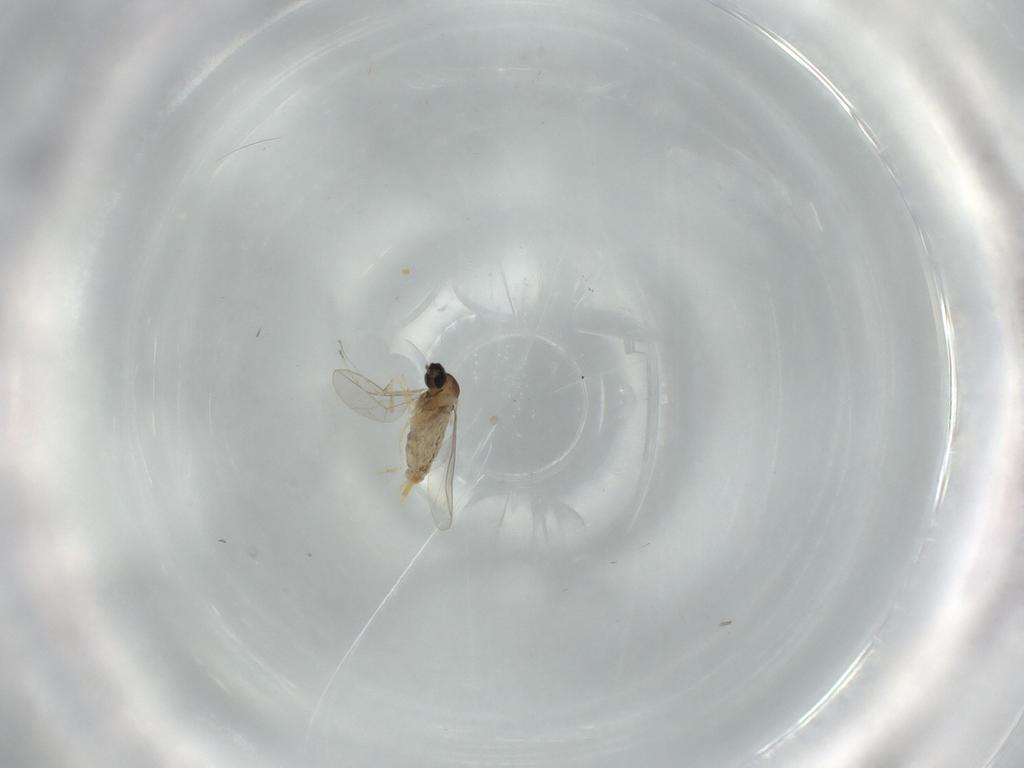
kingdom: Animalia
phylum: Arthropoda
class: Insecta
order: Diptera
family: Cecidomyiidae
